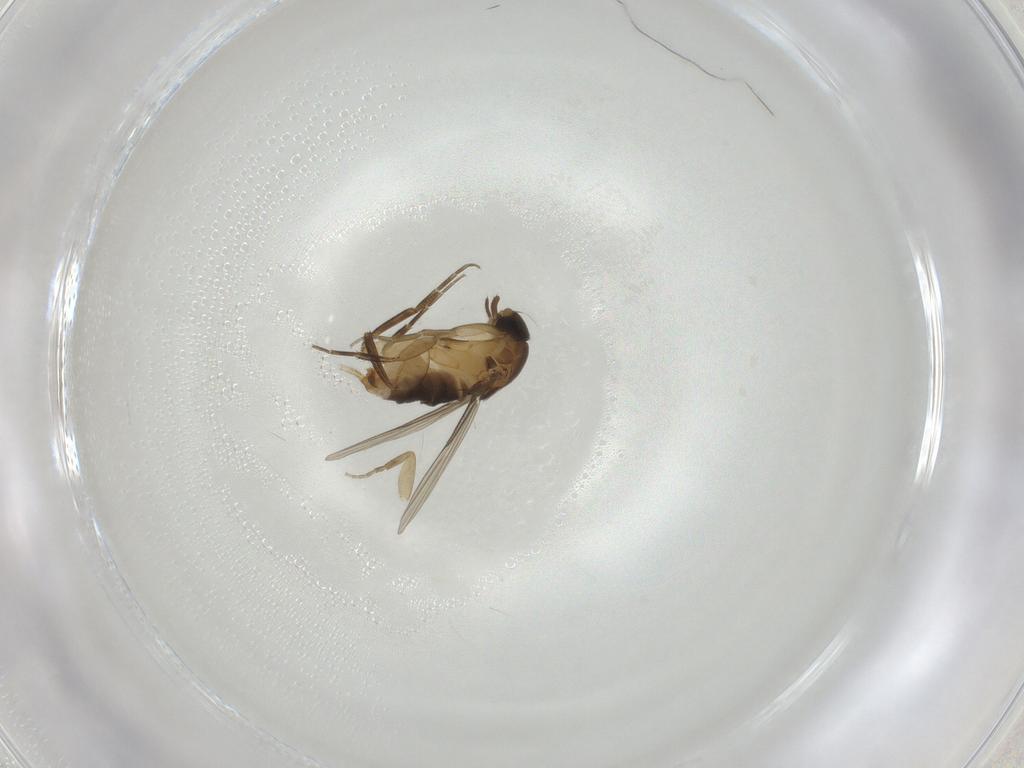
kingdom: Animalia
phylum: Arthropoda
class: Insecta
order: Diptera
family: Phoridae
